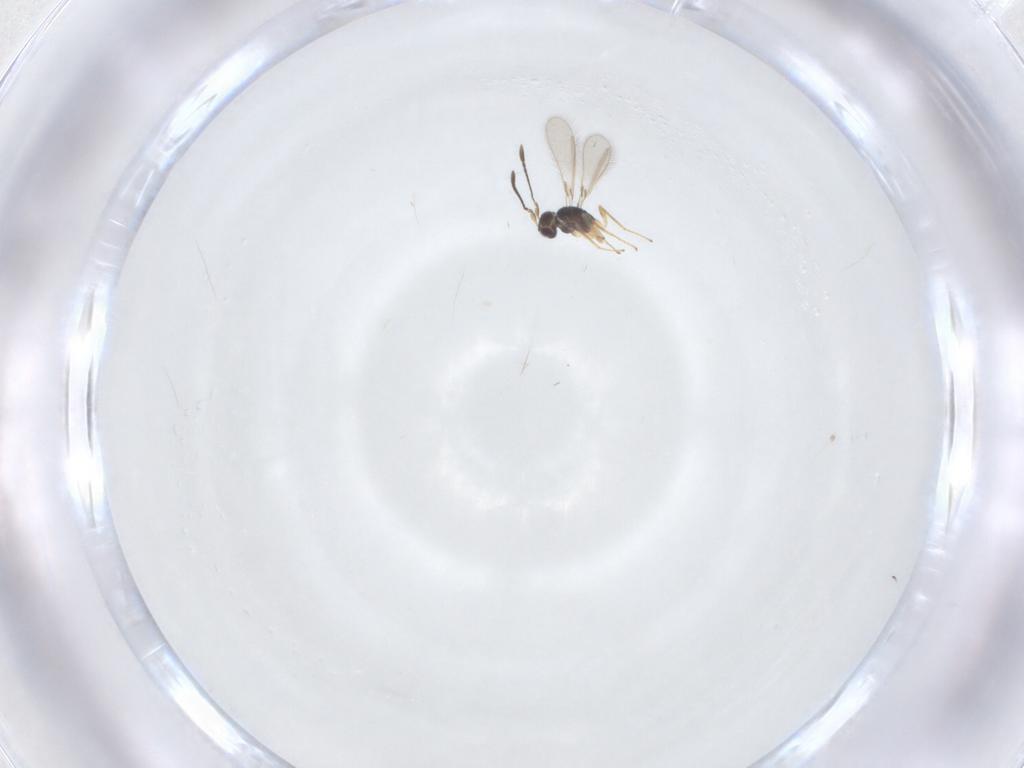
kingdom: Animalia
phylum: Arthropoda
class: Insecta
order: Hymenoptera
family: Mymaridae
